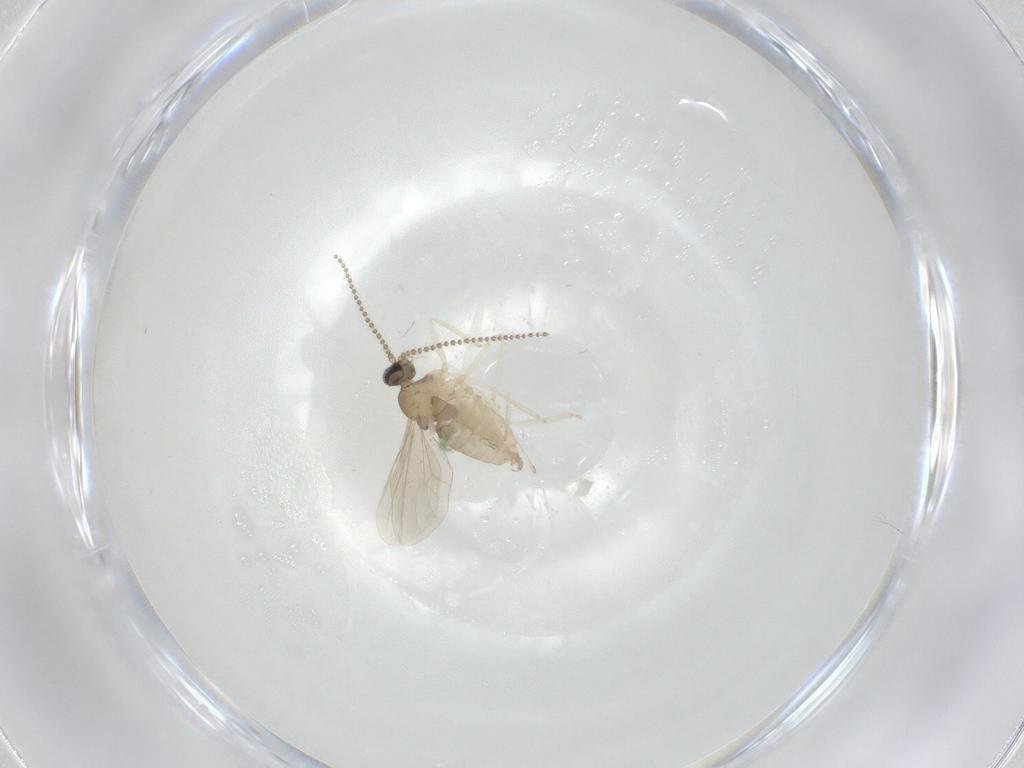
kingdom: Animalia
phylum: Arthropoda
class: Insecta
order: Diptera
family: Cecidomyiidae
